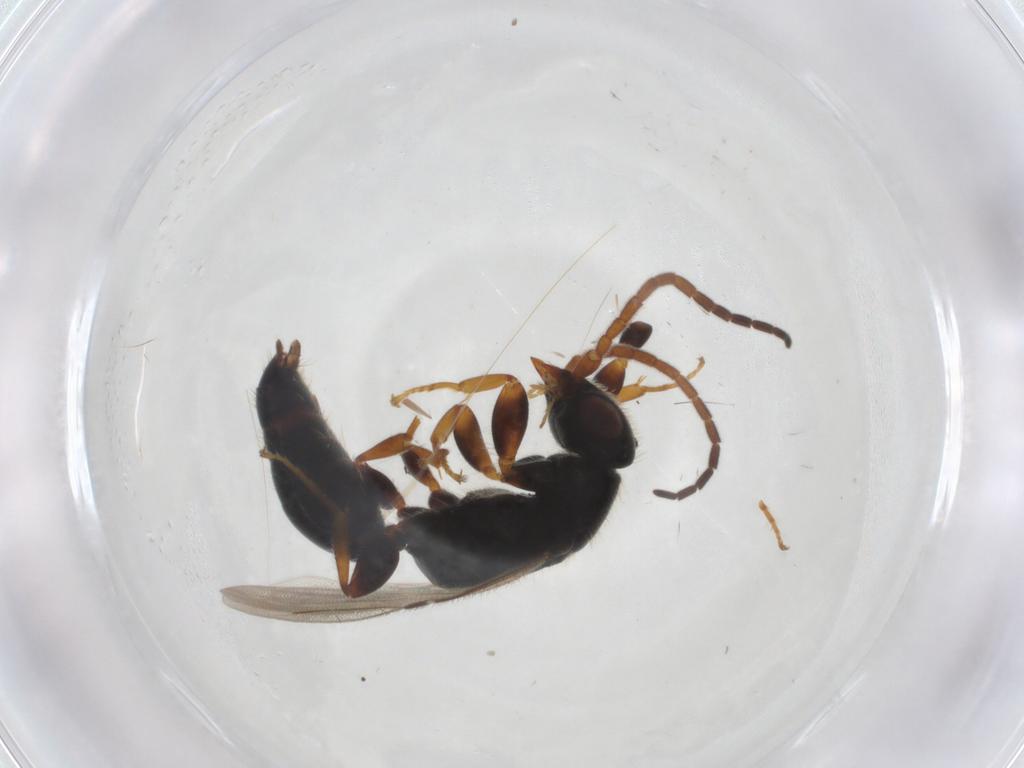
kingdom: Animalia
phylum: Arthropoda
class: Insecta
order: Hymenoptera
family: Bethylidae
